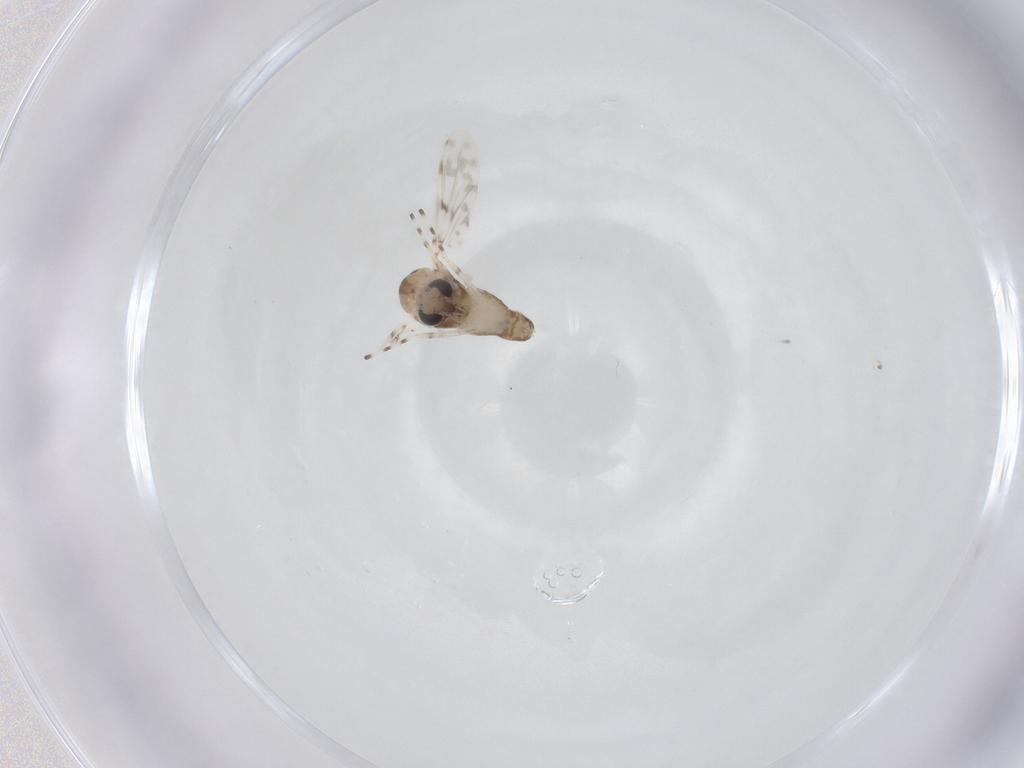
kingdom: Animalia
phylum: Arthropoda
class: Insecta
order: Diptera
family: Chironomidae
